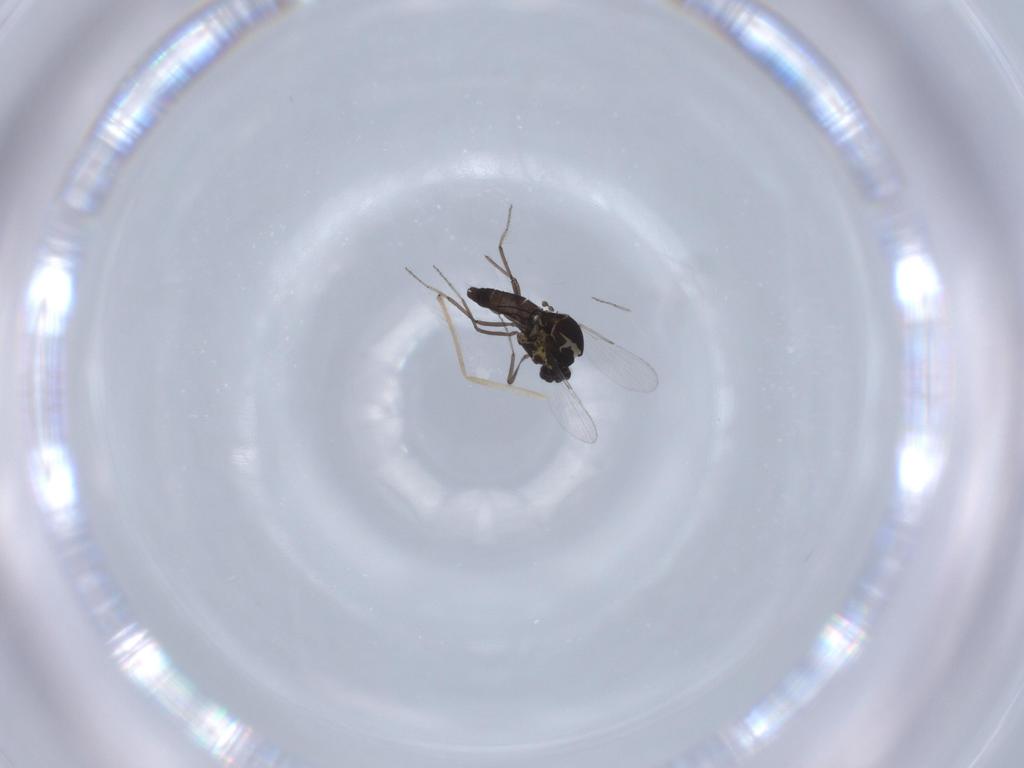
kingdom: Animalia
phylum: Arthropoda
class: Insecta
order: Diptera
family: Ceratopogonidae
